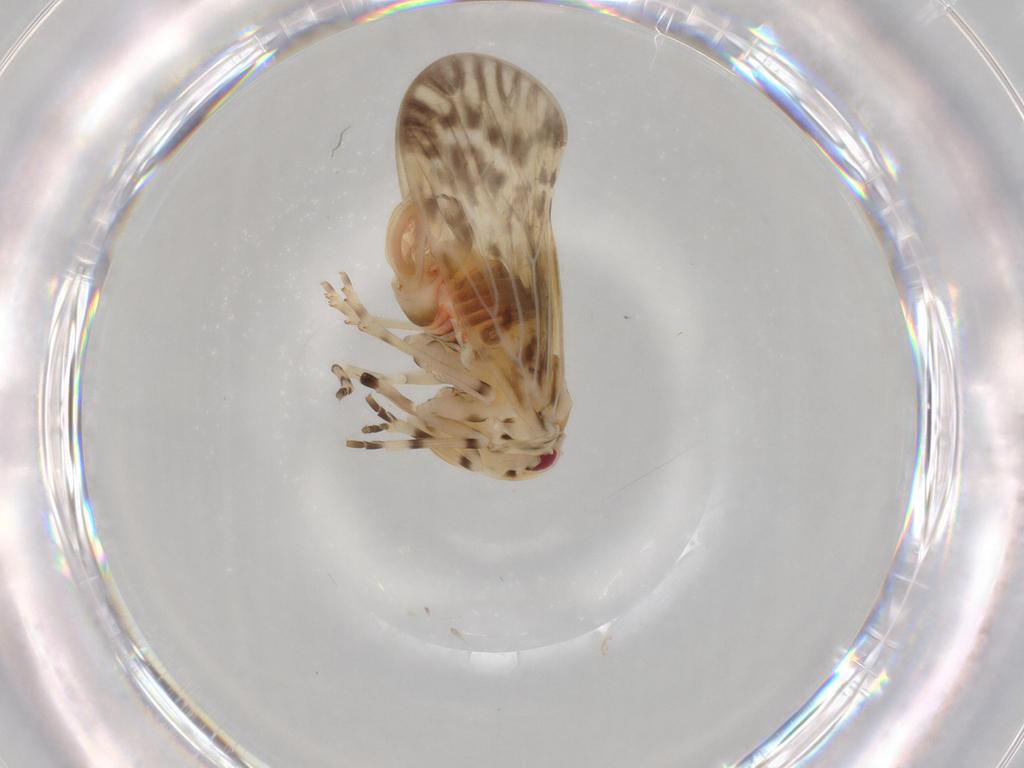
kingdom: Animalia
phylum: Arthropoda
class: Insecta
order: Hemiptera
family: Derbidae
